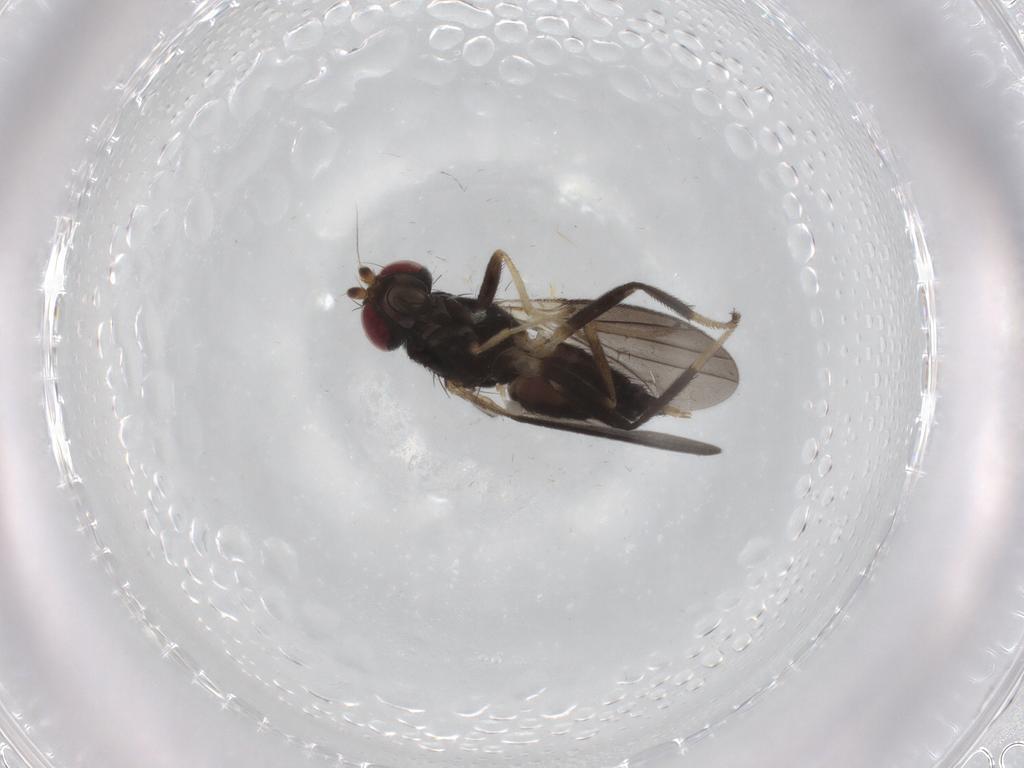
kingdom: Animalia
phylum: Arthropoda
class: Insecta
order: Diptera
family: Clusiidae
